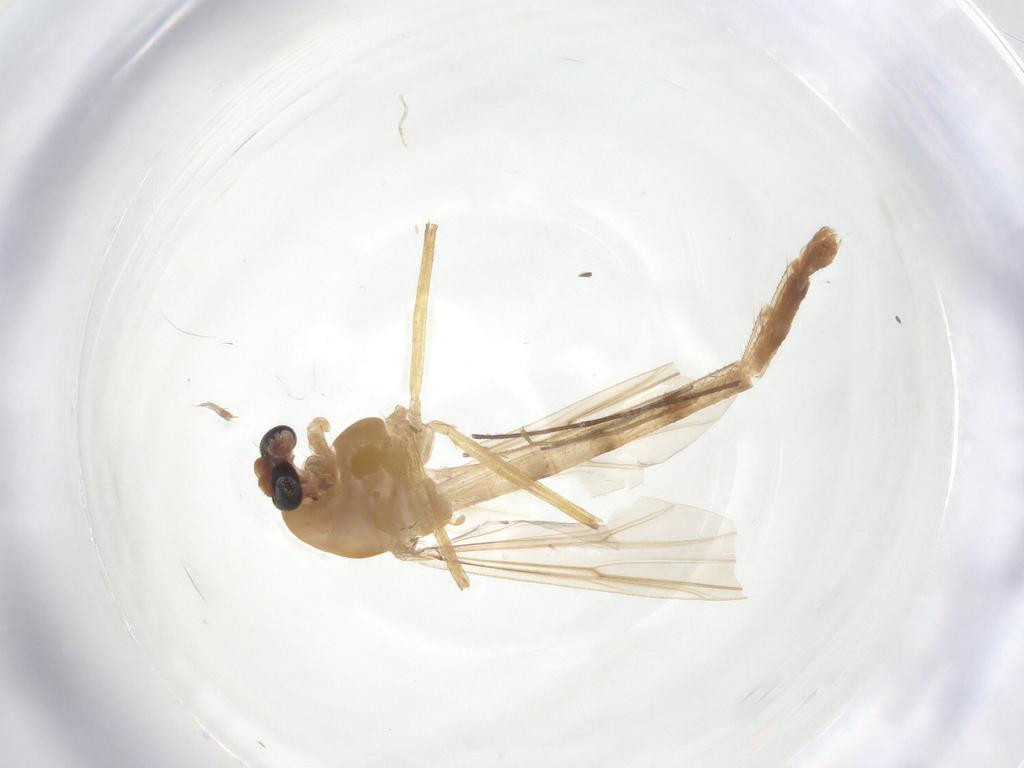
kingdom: Animalia
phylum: Arthropoda
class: Insecta
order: Diptera
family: Chironomidae
